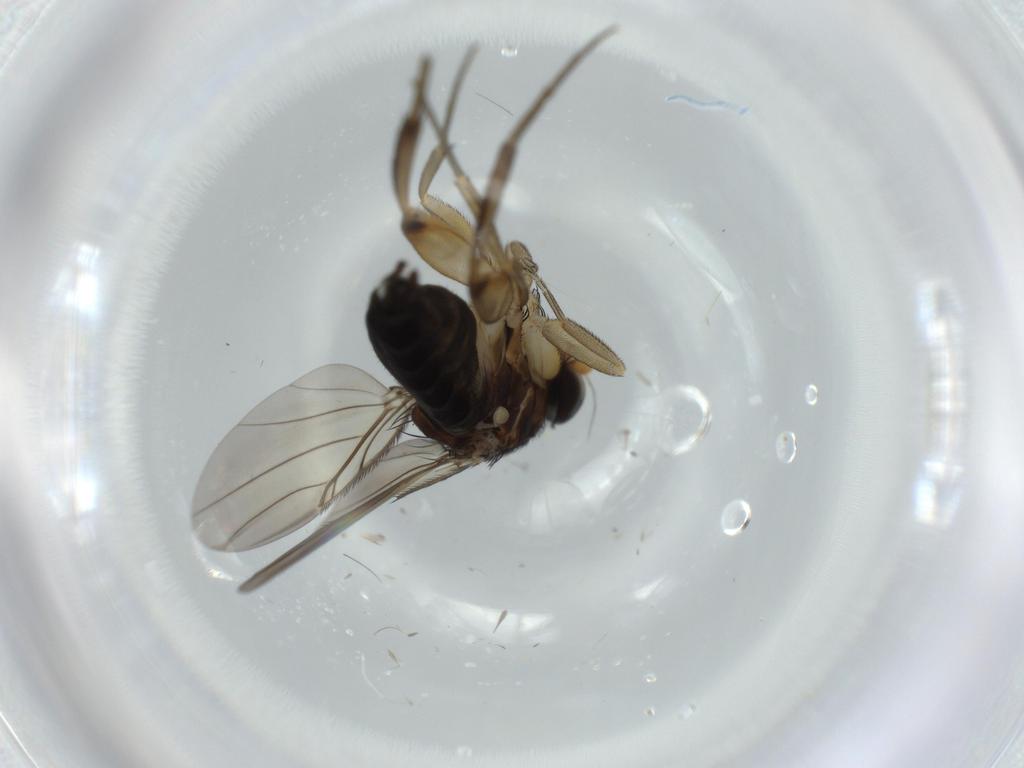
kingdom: Animalia
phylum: Arthropoda
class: Insecta
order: Diptera
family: Phoridae
